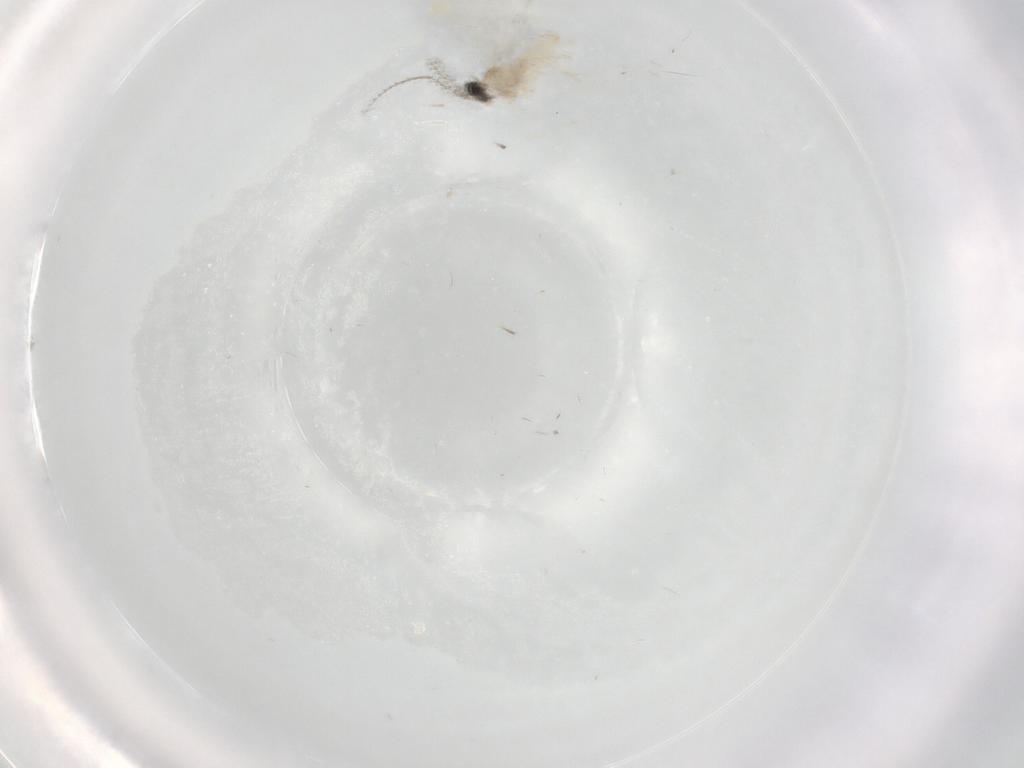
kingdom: Animalia
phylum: Arthropoda
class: Insecta
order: Diptera
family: Cecidomyiidae
